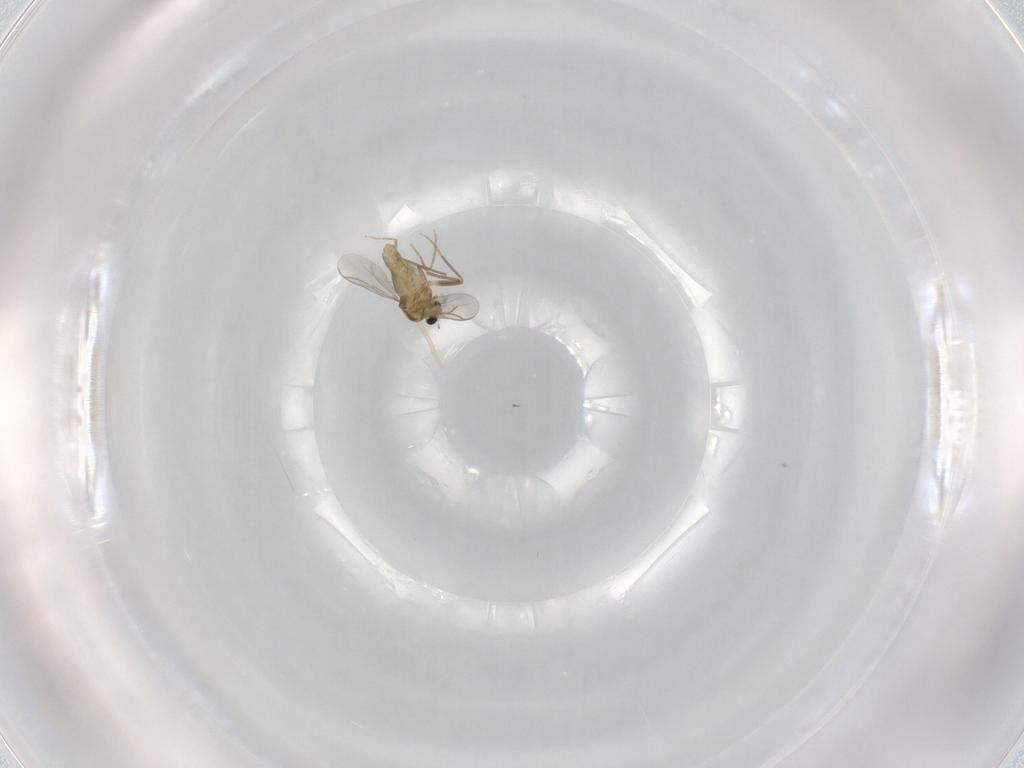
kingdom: Animalia
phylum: Arthropoda
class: Insecta
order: Diptera
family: Chironomidae
